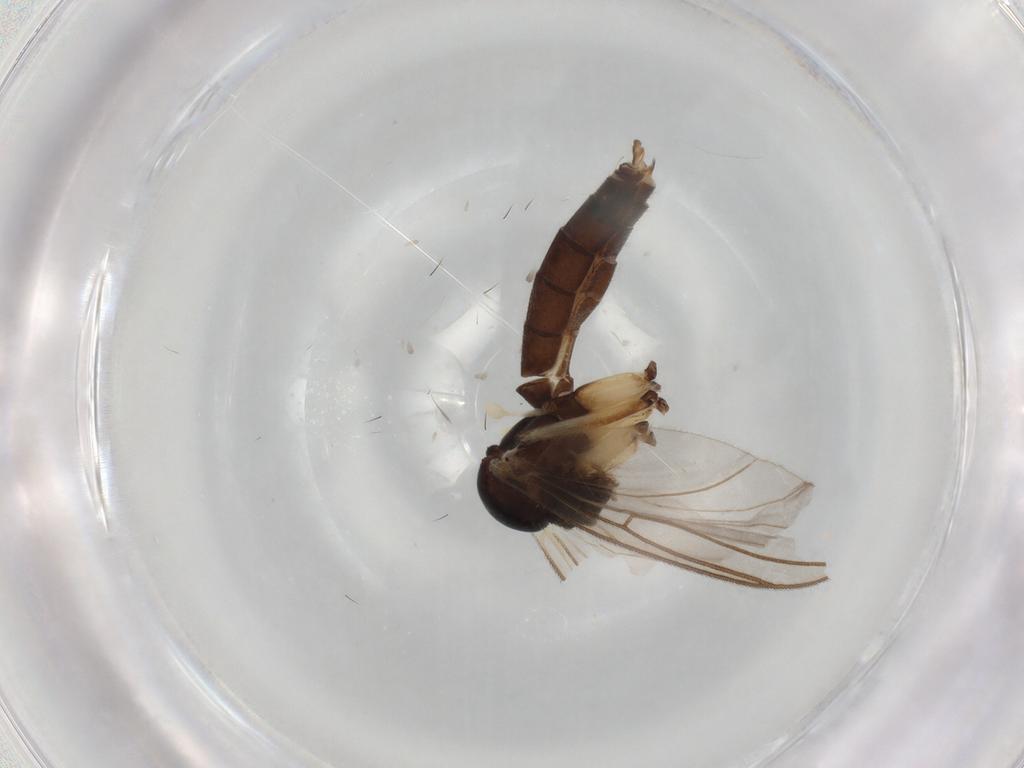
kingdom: Animalia
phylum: Arthropoda
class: Insecta
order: Diptera
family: Mycetophilidae
